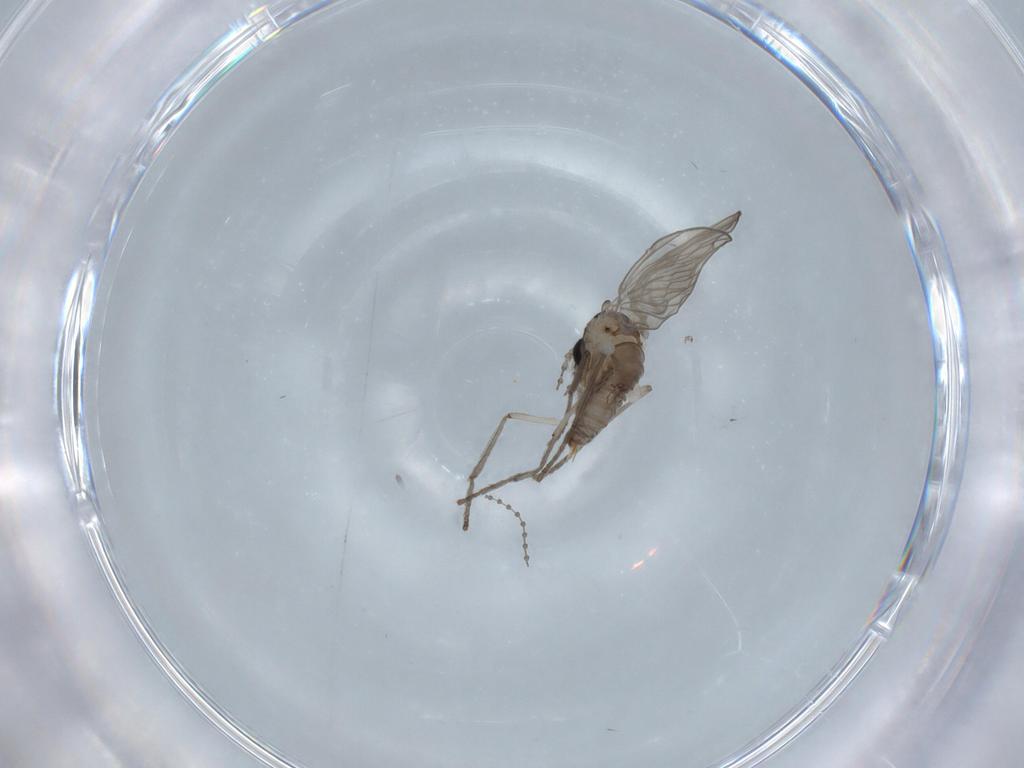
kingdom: Animalia
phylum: Arthropoda
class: Insecta
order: Diptera
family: Psychodidae
